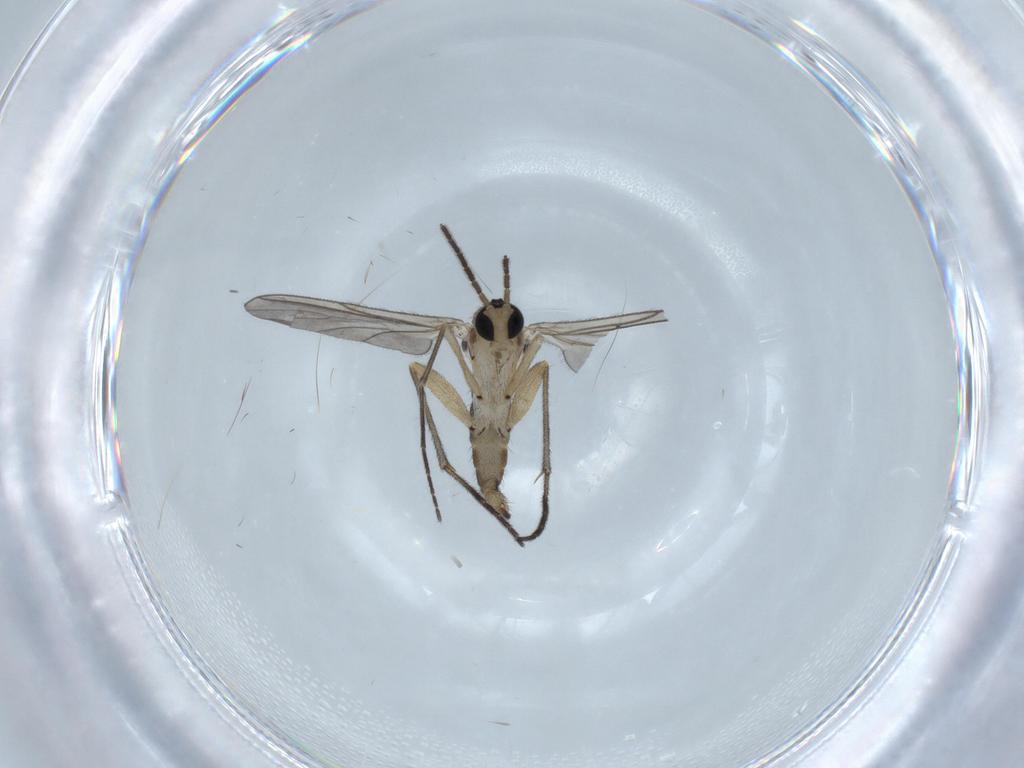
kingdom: Animalia
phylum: Arthropoda
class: Insecta
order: Diptera
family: Sciaridae
